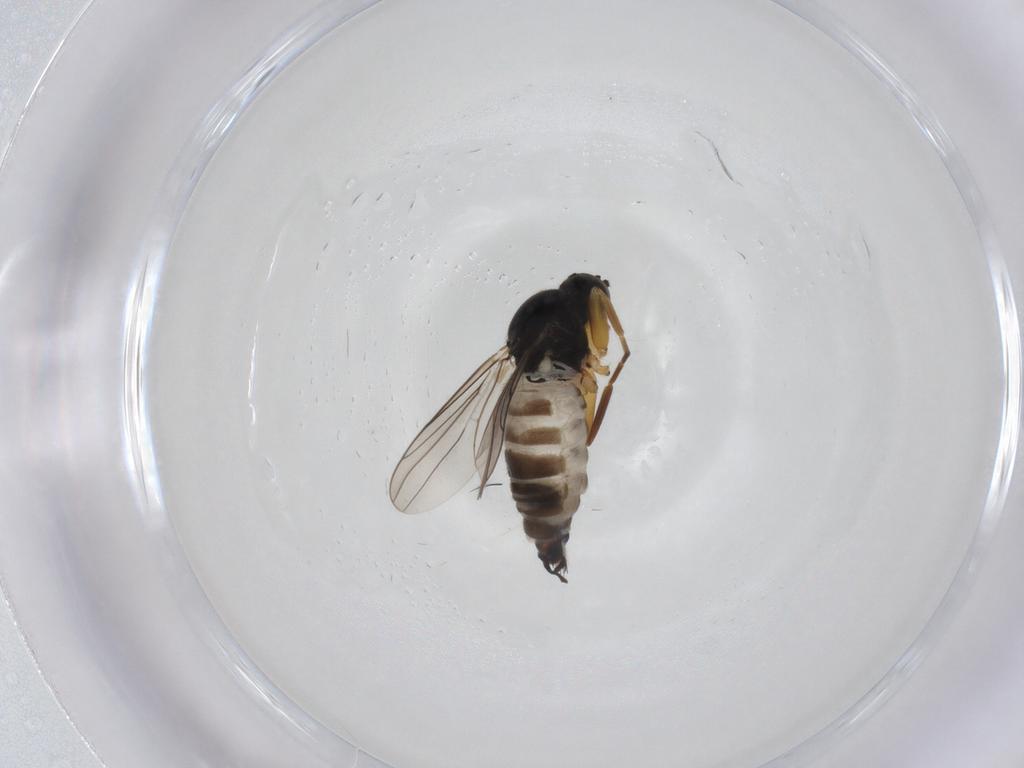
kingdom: Animalia
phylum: Arthropoda
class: Insecta
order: Diptera
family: Hybotidae
